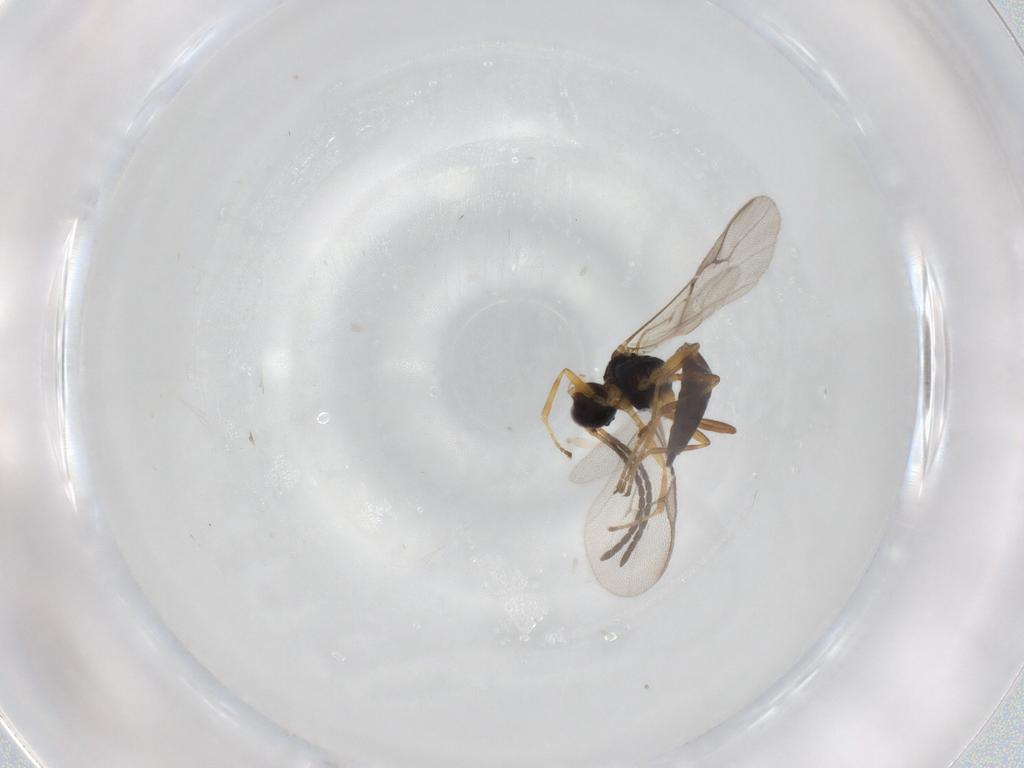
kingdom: Animalia
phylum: Arthropoda
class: Insecta
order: Hymenoptera
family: Braconidae
